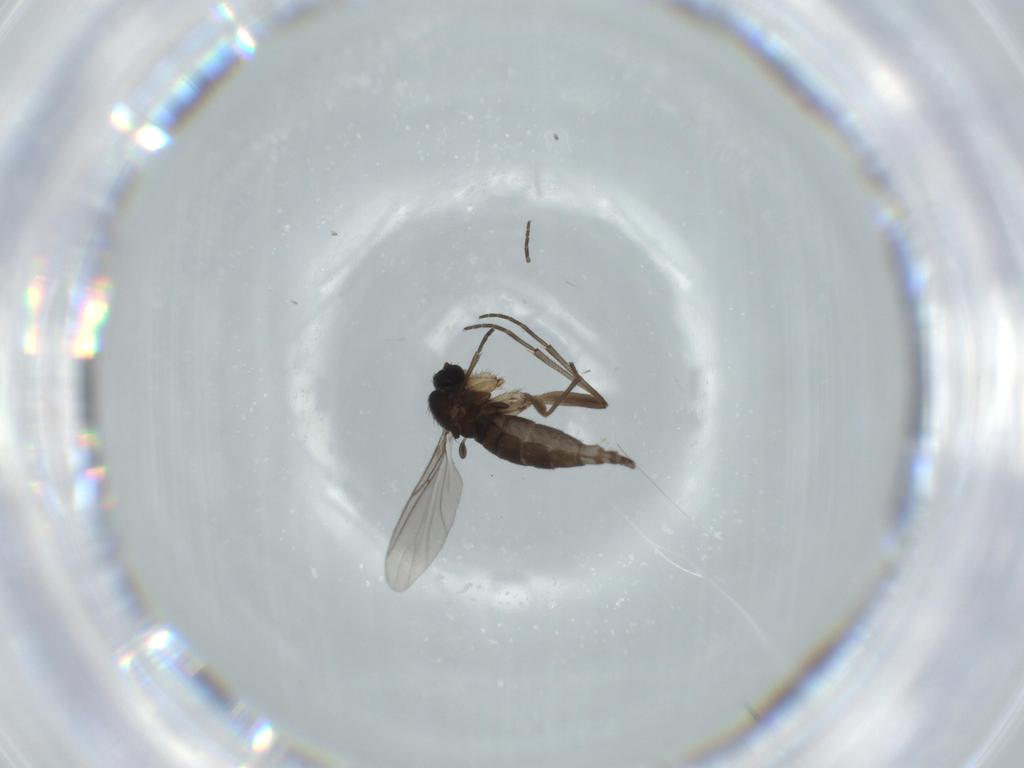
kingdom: Animalia
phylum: Arthropoda
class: Insecta
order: Diptera
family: Sciaridae
